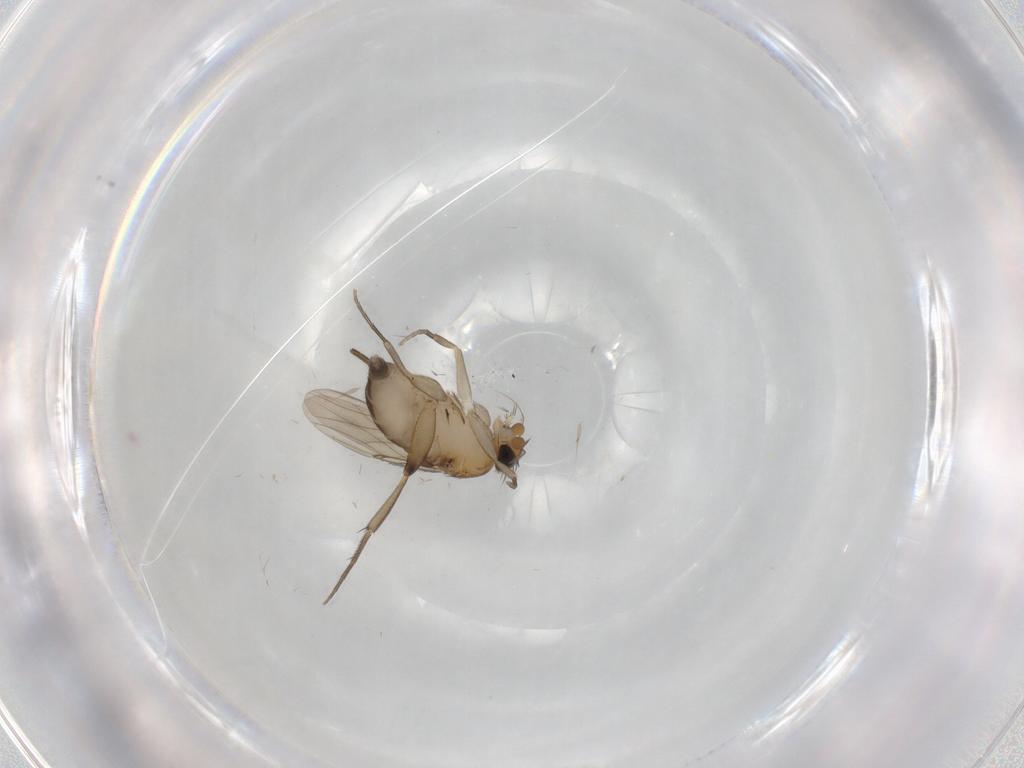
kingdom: Animalia
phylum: Arthropoda
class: Insecta
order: Diptera
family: Phoridae
